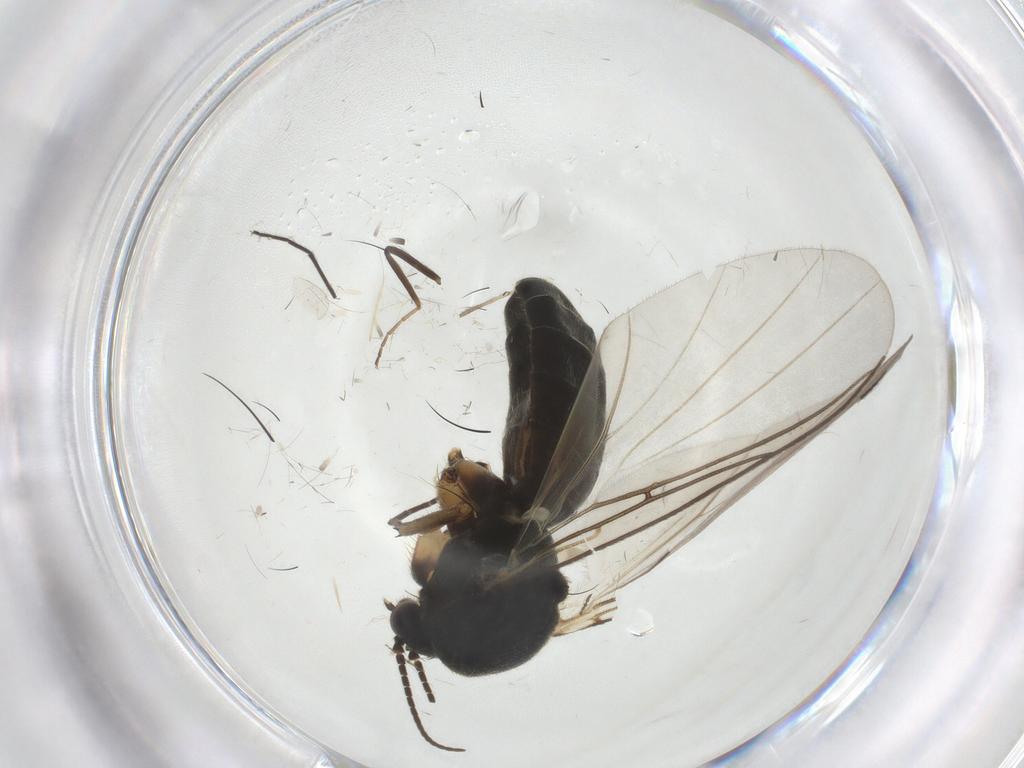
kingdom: Animalia
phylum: Arthropoda
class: Insecta
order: Diptera
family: Mycetophilidae
